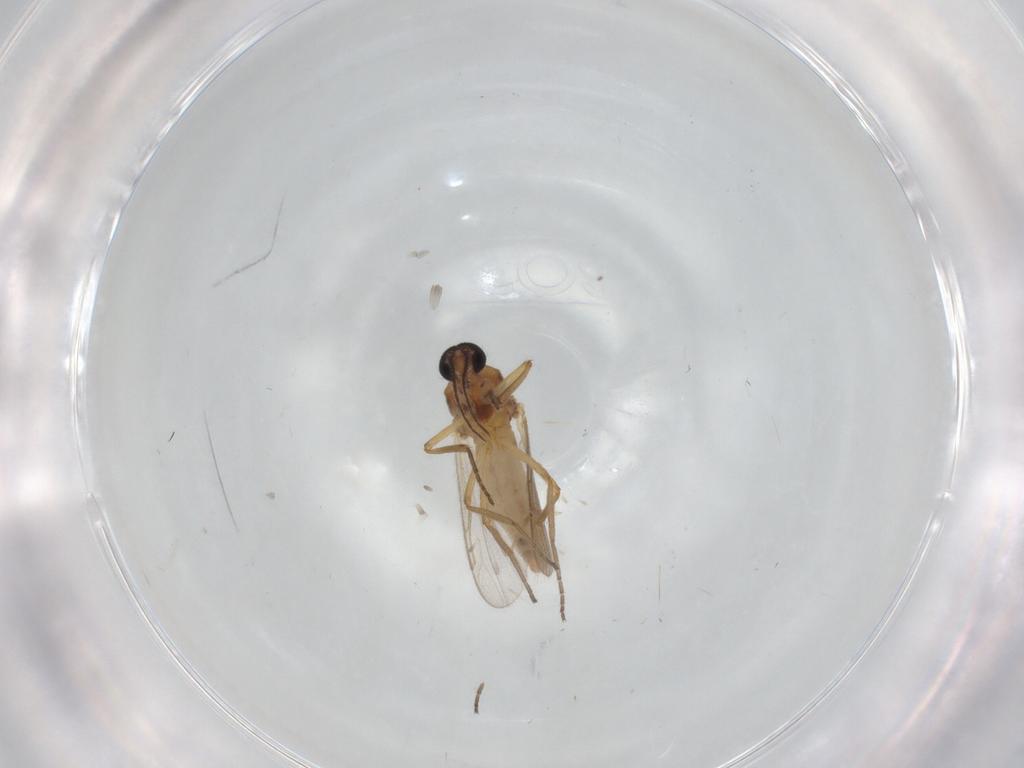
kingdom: Animalia
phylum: Arthropoda
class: Insecta
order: Diptera
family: Ceratopogonidae
